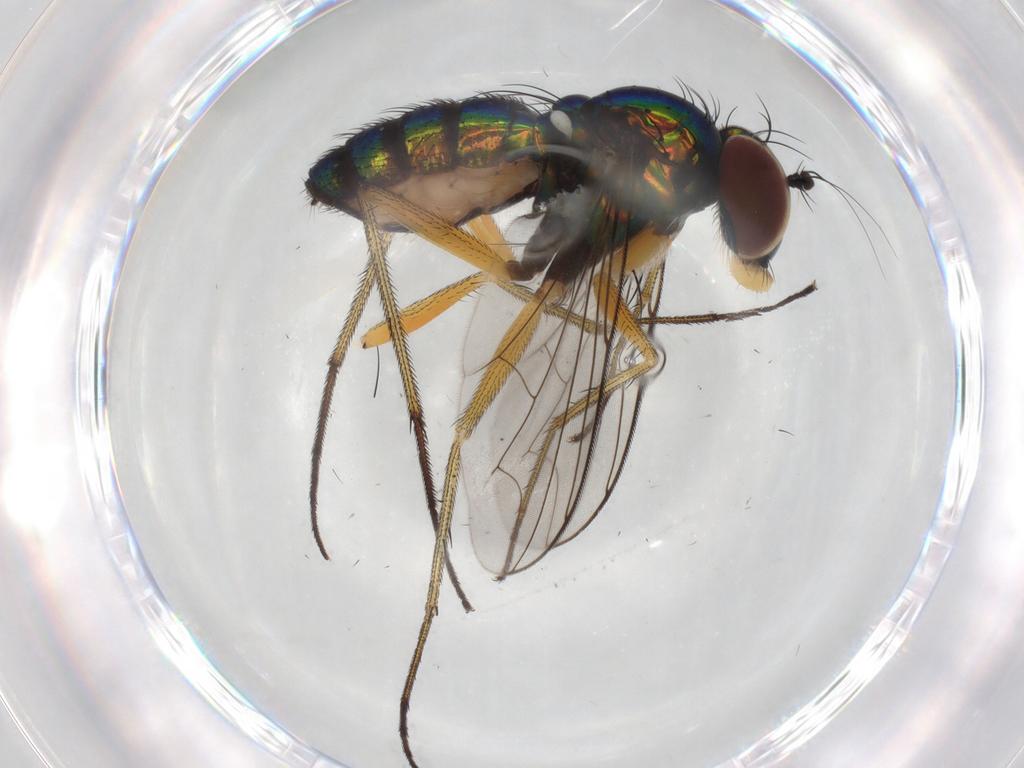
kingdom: Animalia
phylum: Arthropoda
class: Insecta
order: Diptera
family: Dolichopodidae
